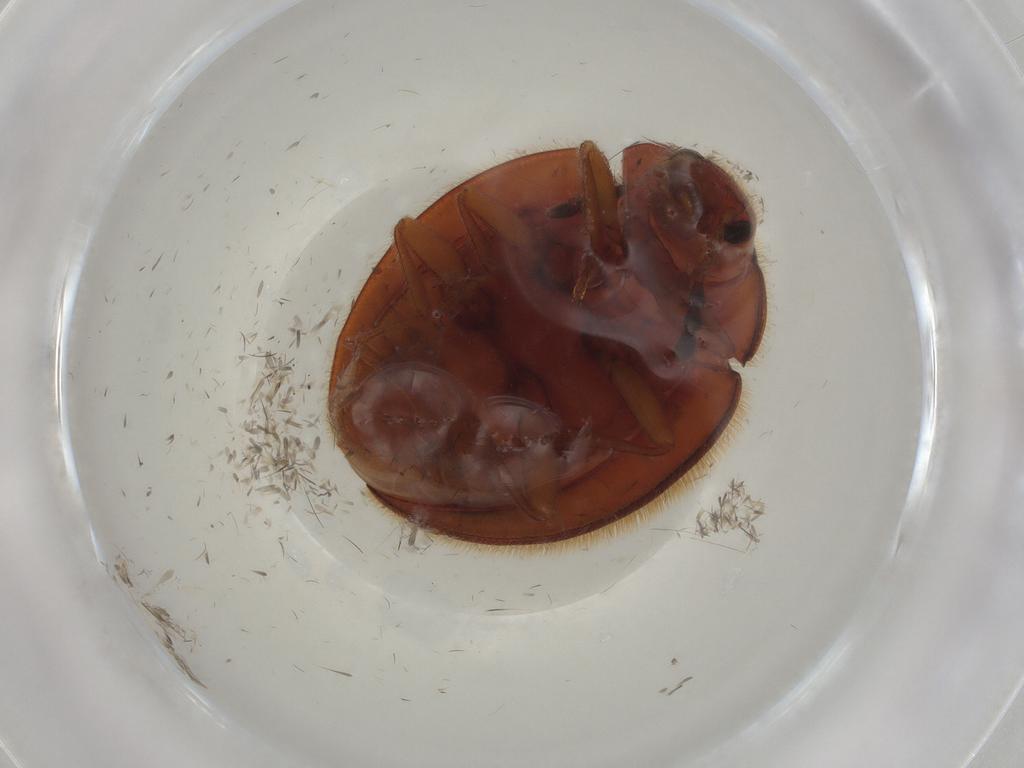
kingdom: Animalia
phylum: Arthropoda
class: Insecta
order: Coleoptera
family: Anamorphidae
